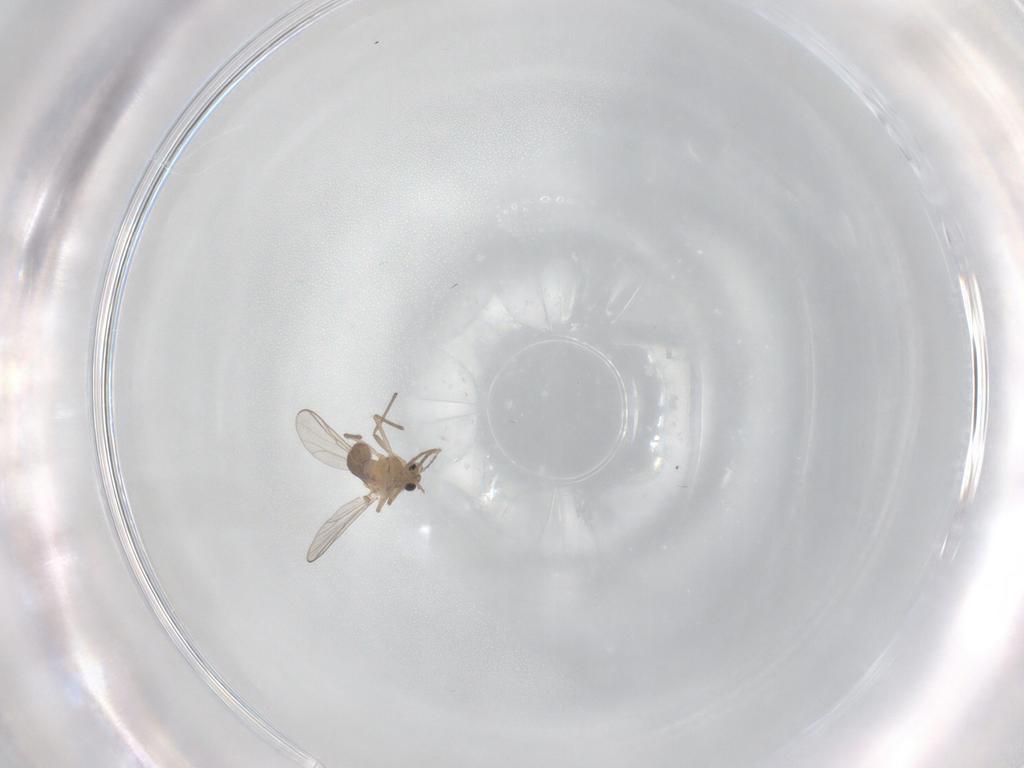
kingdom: Animalia
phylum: Arthropoda
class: Insecta
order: Diptera
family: Chironomidae
